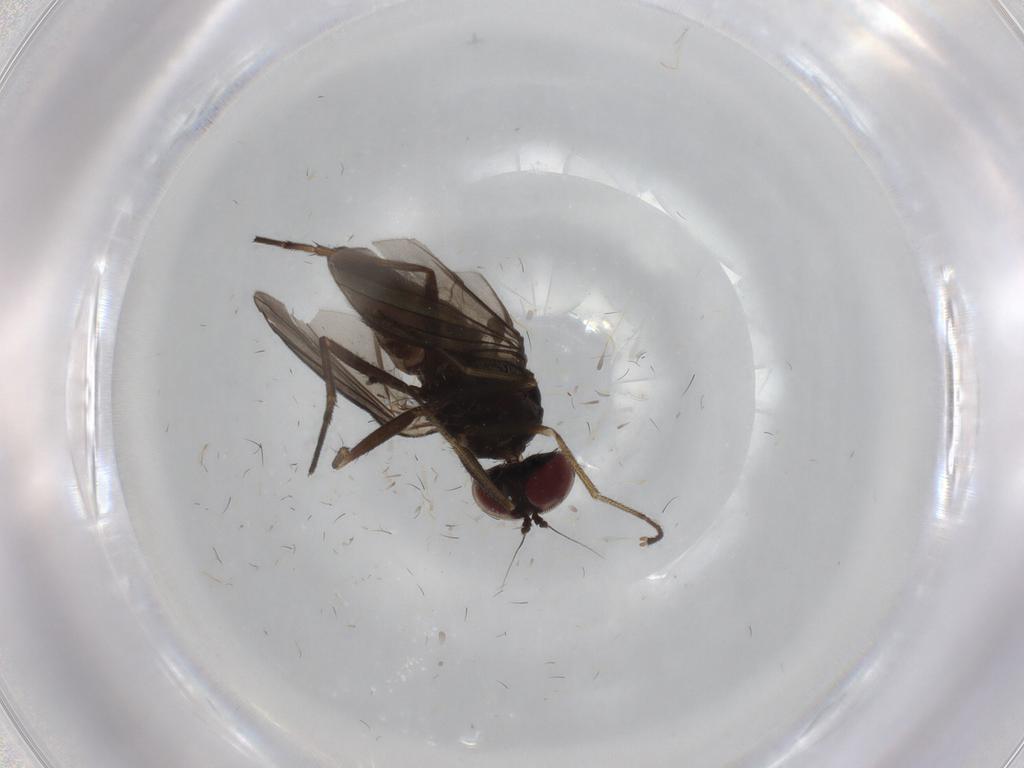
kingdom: Animalia
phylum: Arthropoda
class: Insecta
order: Diptera
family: Dolichopodidae
